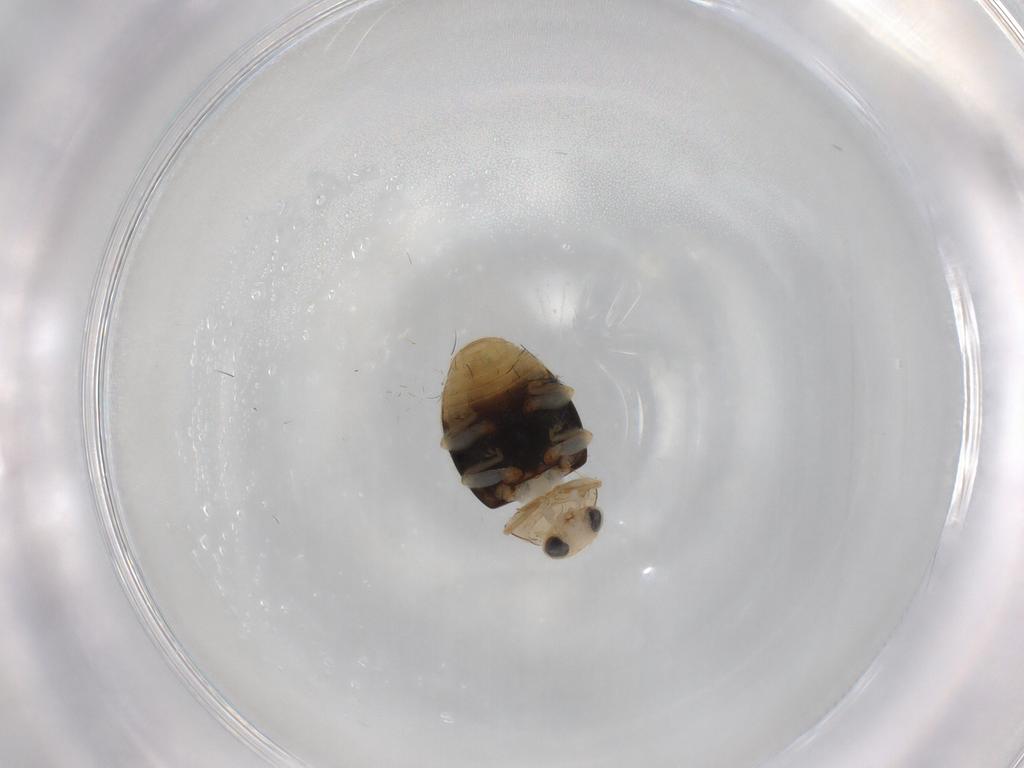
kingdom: Animalia
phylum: Arthropoda
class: Insecta
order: Coleoptera
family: Coccinellidae
